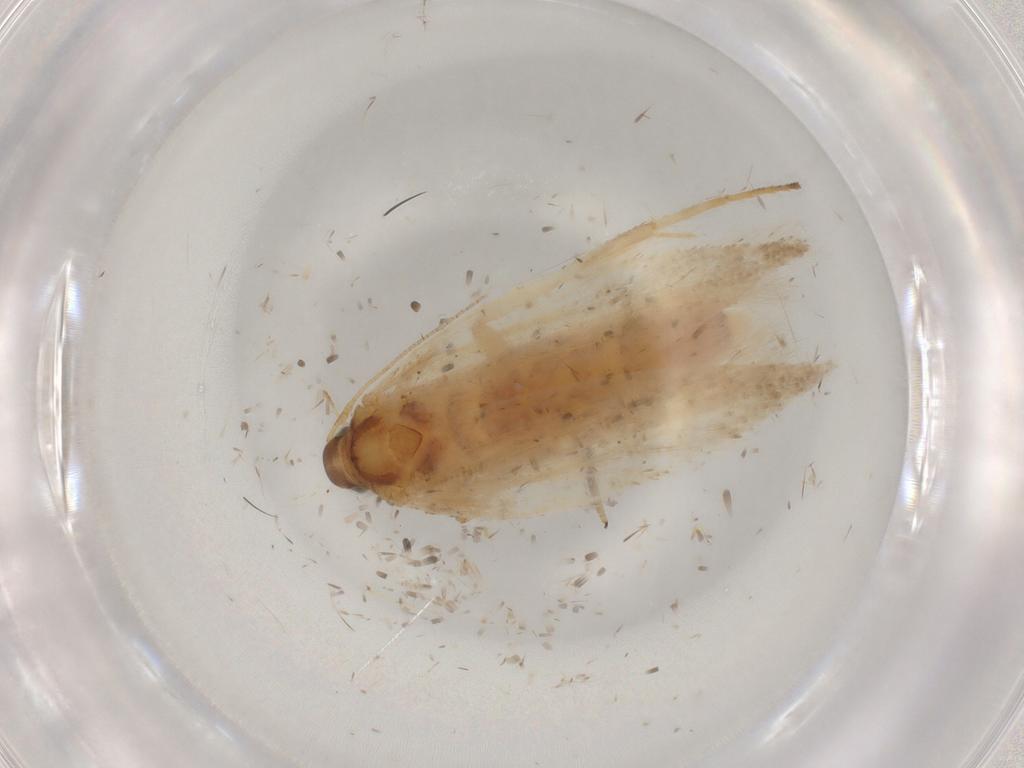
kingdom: Animalia
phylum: Arthropoda
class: Insecta
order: Lepidoptera
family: Gelechiidae
